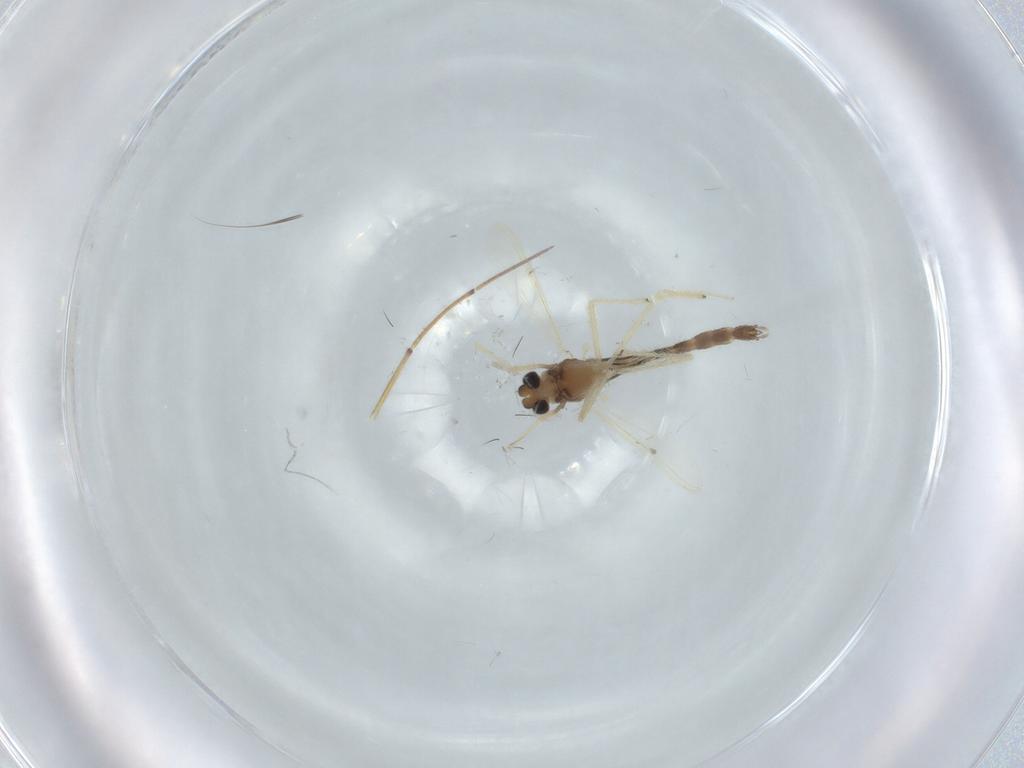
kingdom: Animalia
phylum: Arthropoda
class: Insecta
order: Diptera
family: Chironomidae
